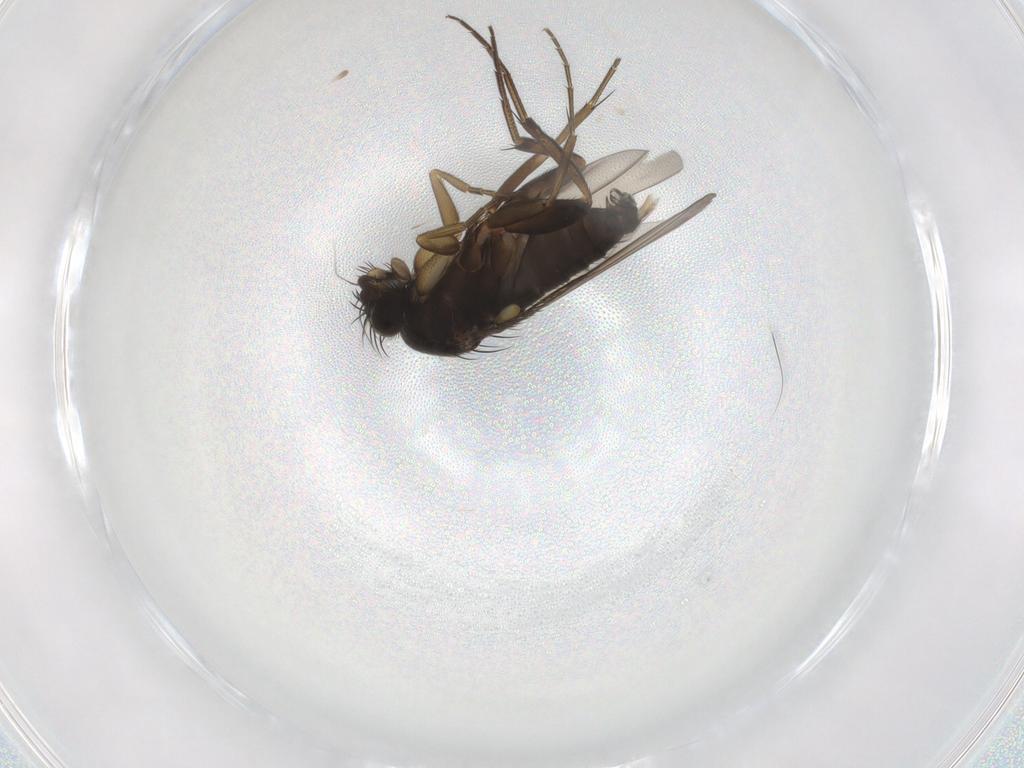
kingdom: Animalia
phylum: Arthropoda
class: Insecta
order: Diptera
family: Phoridae
